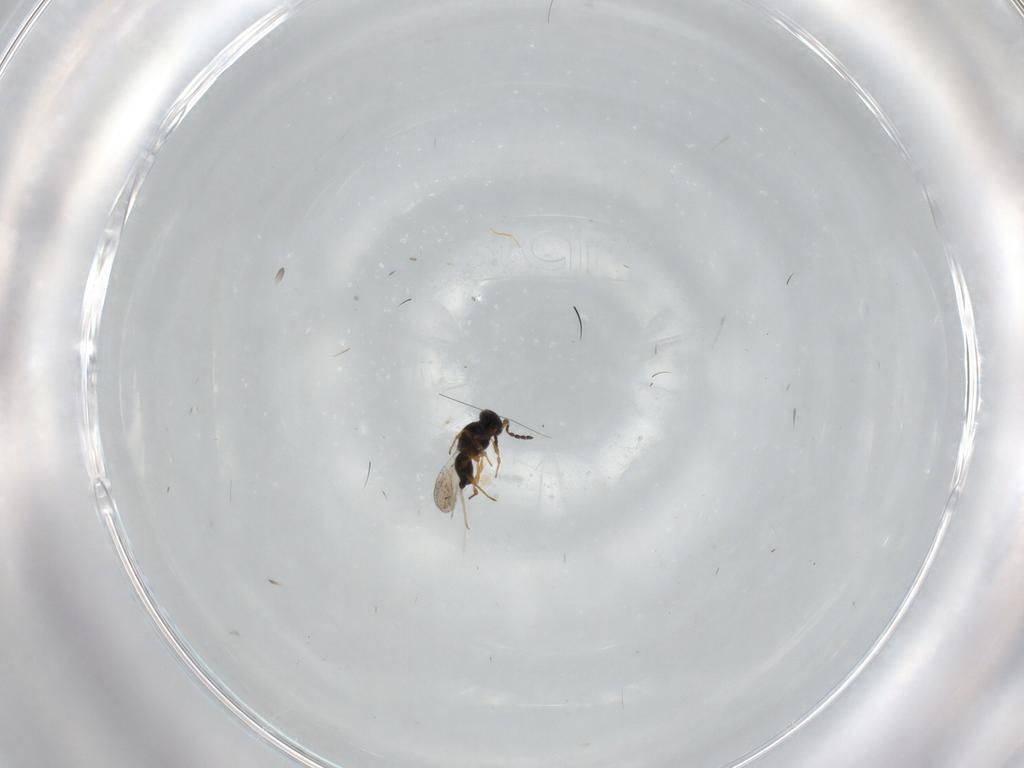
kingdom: Animalia
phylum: Arthropoda
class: Insecta
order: Hymenoptera
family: Platygastridae
